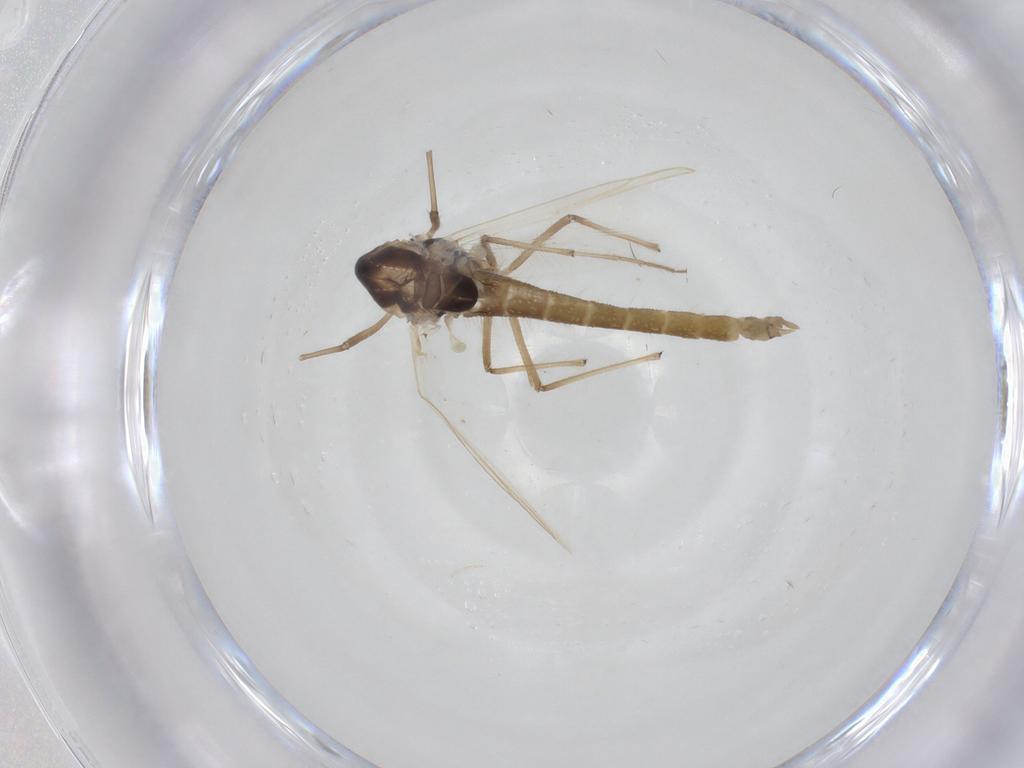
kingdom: Animalia
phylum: Arthropoda
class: Insecta
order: Diptera
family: Chironomidae
